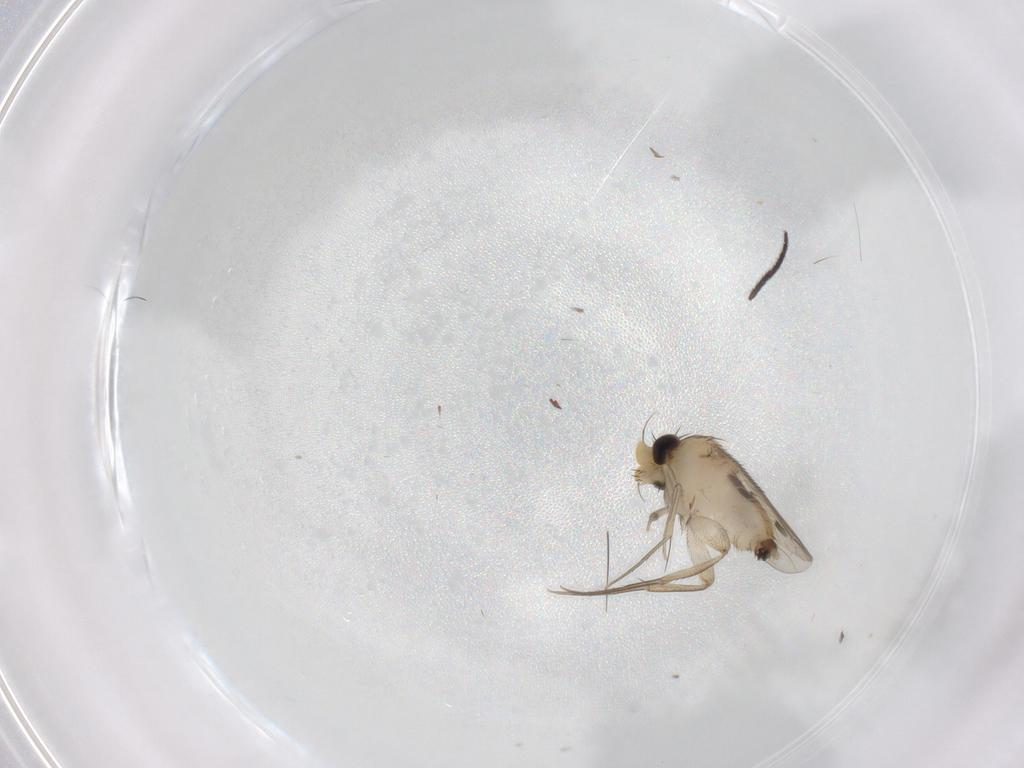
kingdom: Animalia
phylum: Arthropoda
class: Insecta
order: Diptera
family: Phoridae
